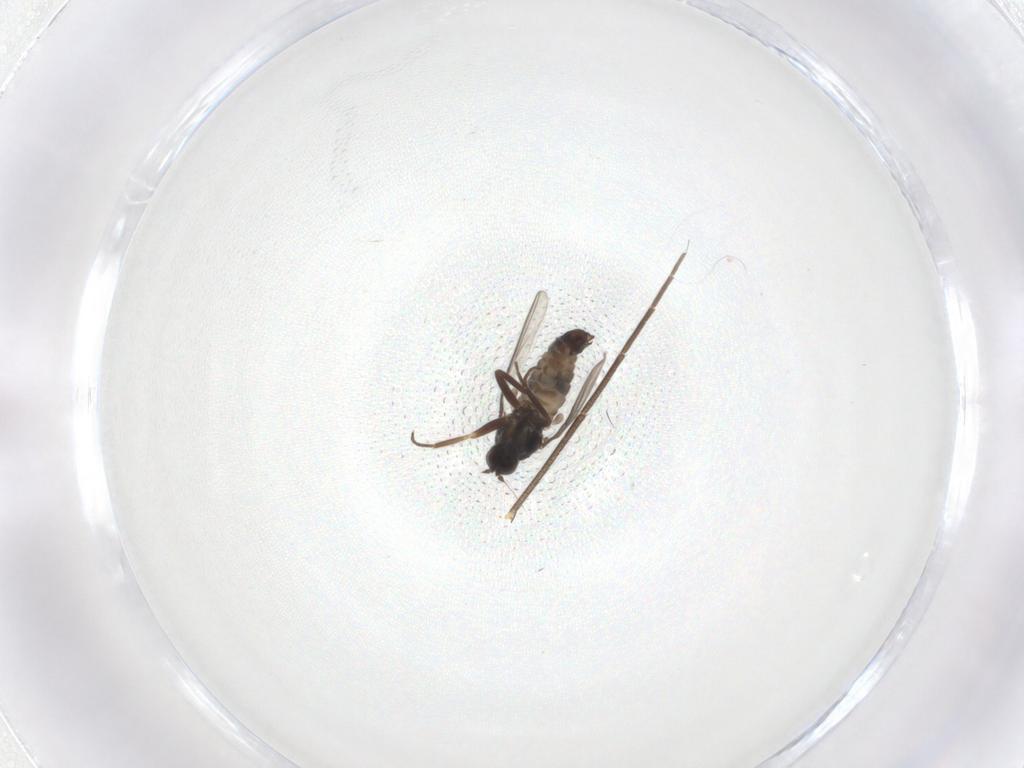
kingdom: Animalia
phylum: Arthropoda
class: Insecta
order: Diptera
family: Hybotidae
